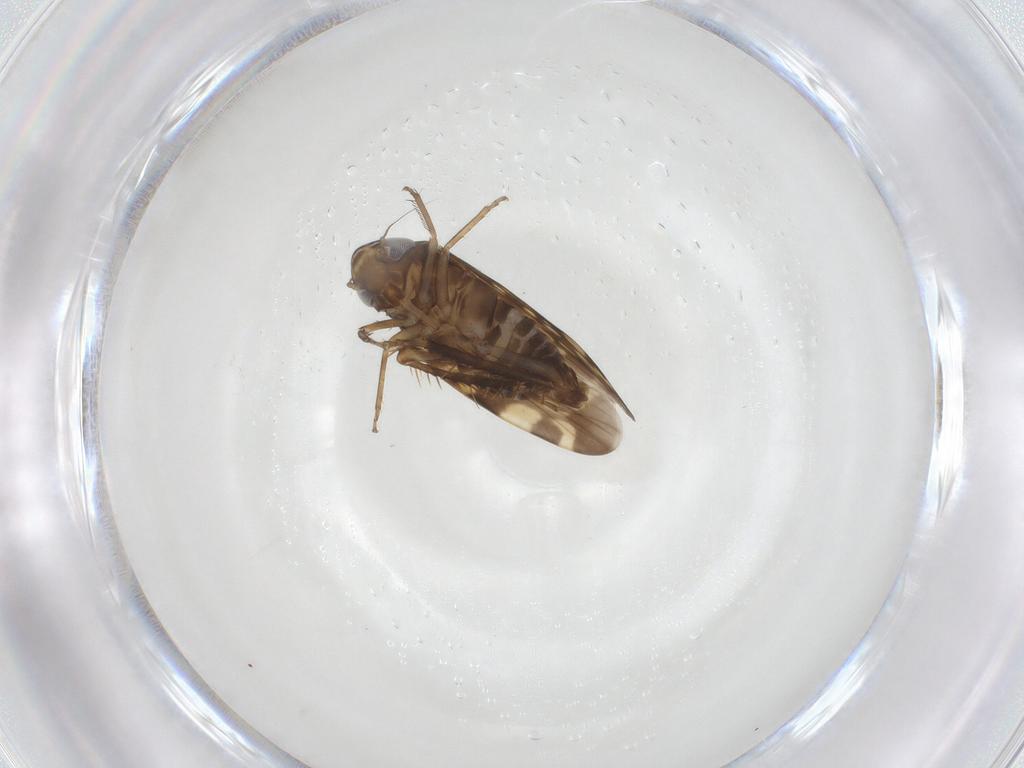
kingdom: Animalia
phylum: Arthropoda
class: Insecta
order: Hemiptera
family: Cicadellidae
